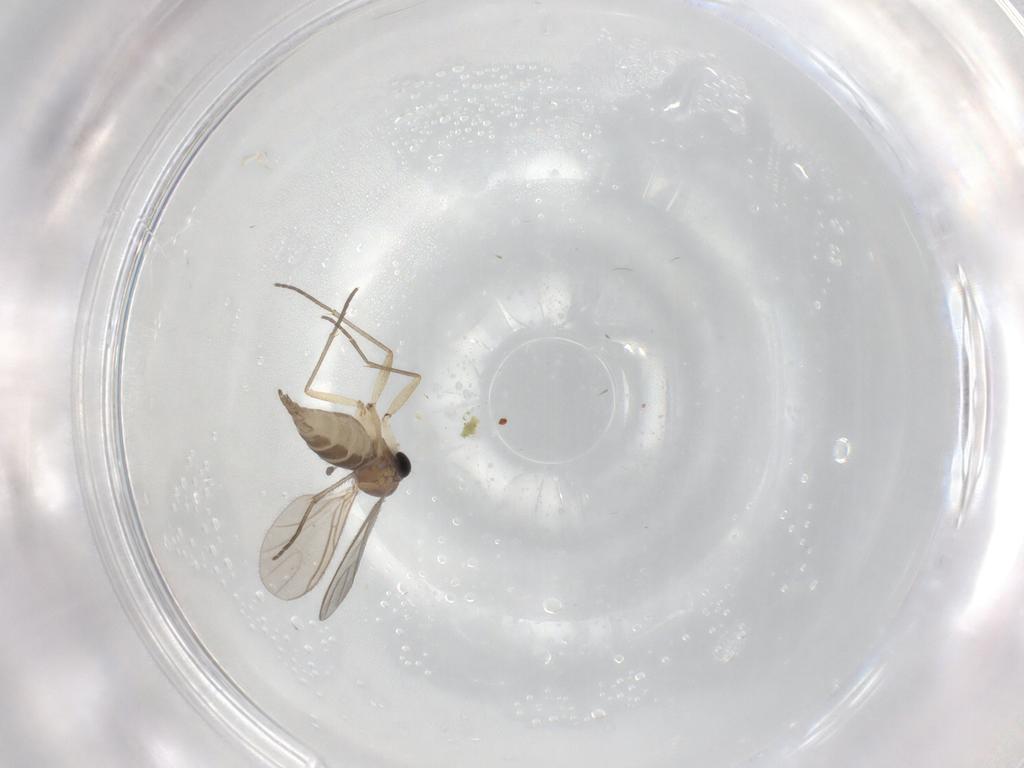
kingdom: Animalia
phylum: Arthropoda
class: Insecta
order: Diptera
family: Sciaridae
